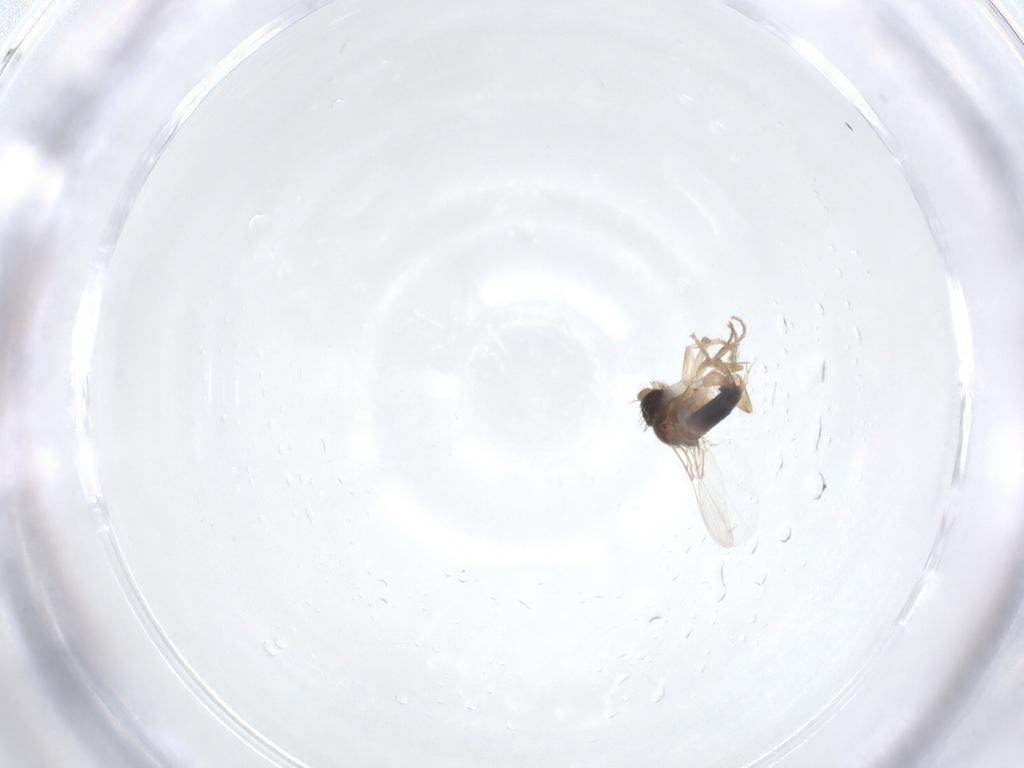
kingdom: Animalia
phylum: Arthropoda
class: Insecta
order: Diptera
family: Phoridae
